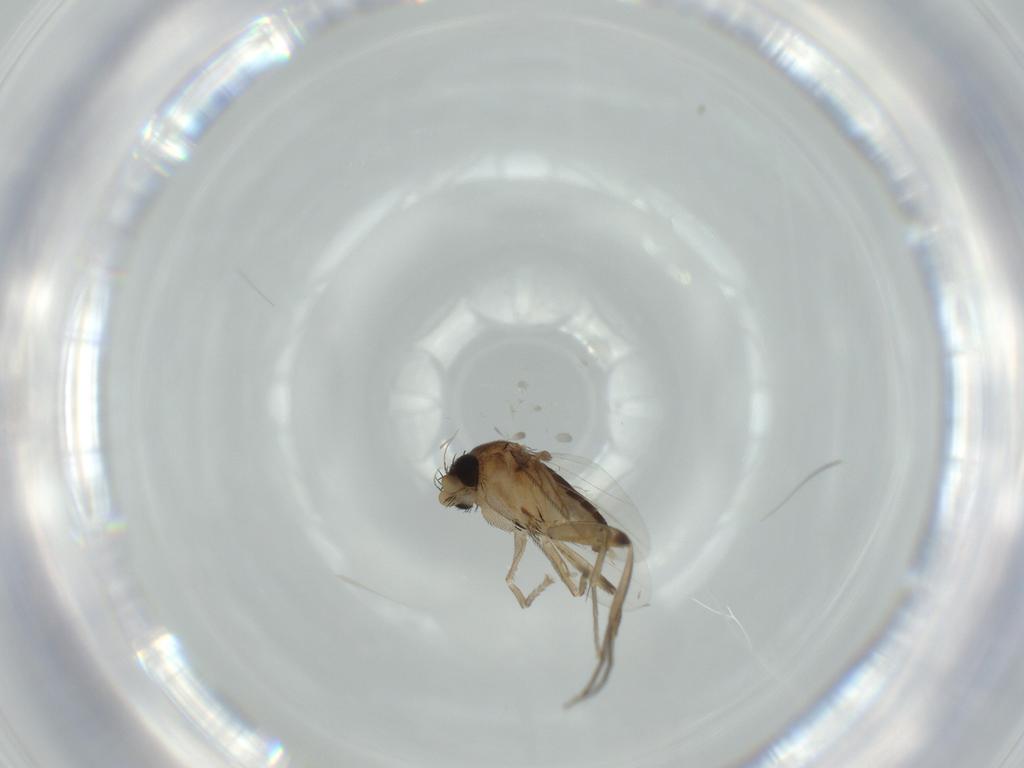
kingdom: Animalia
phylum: Arthropoda
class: Insecta
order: Diptera
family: Phoridae
